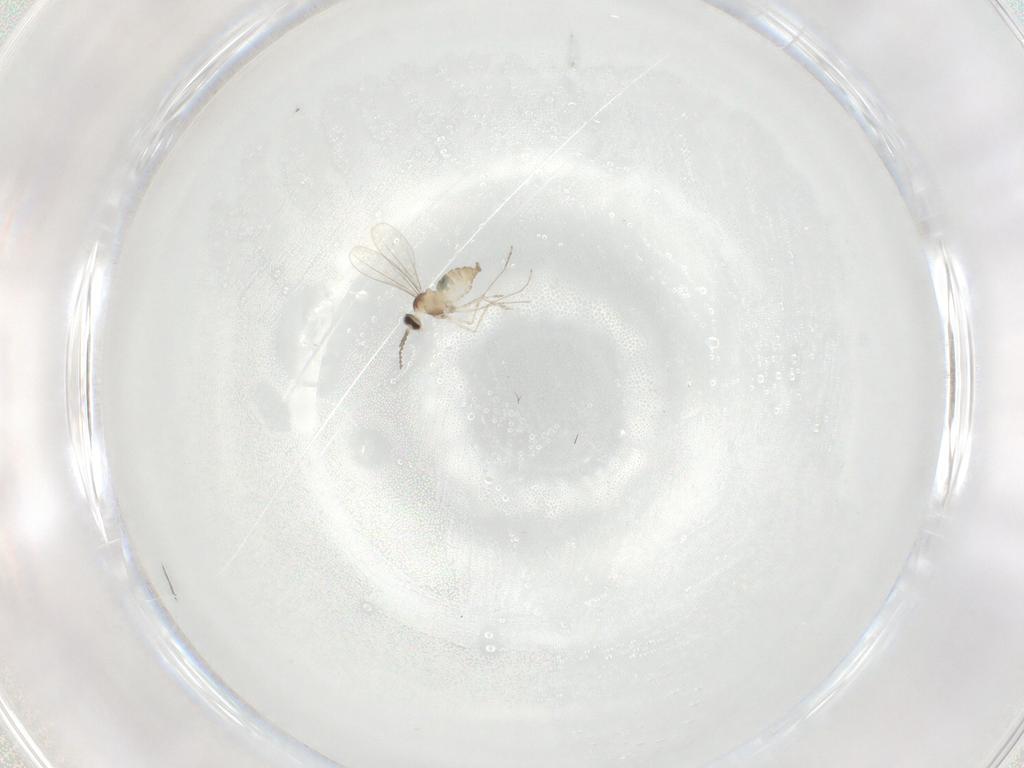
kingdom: Animalia
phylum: Arthropoda
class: Insecta
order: Diptera
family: Cecidomyiidae
